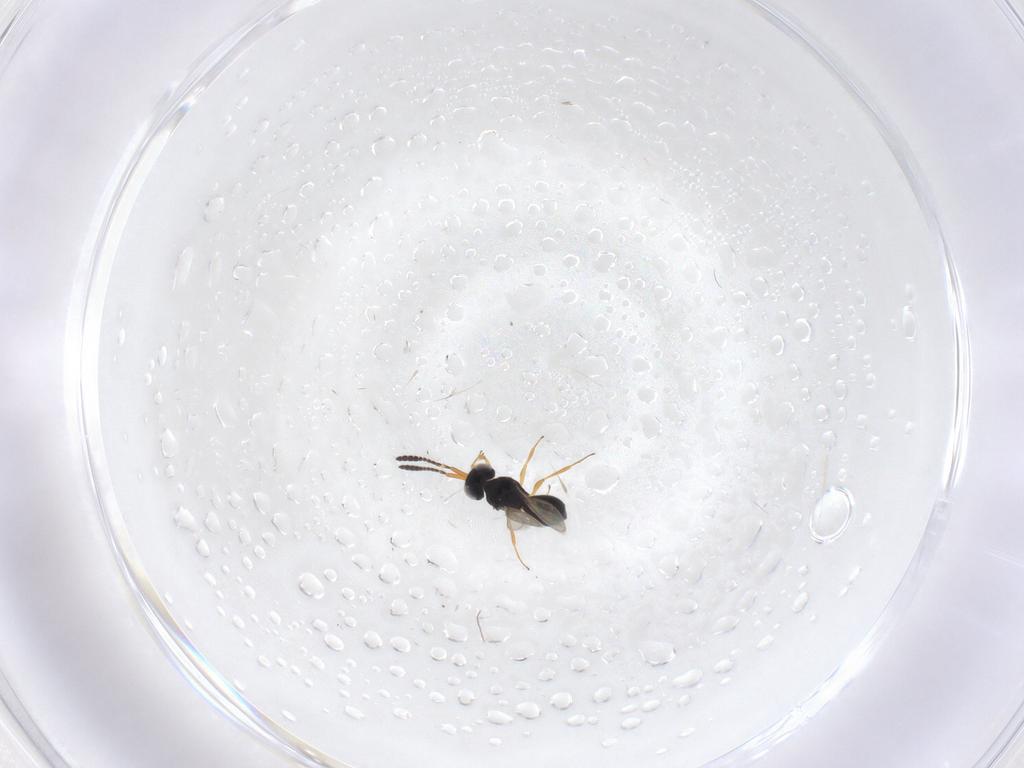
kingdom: Animalia
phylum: Arthropoda
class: Insecta
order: Hymenoptera
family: Scelionidae
